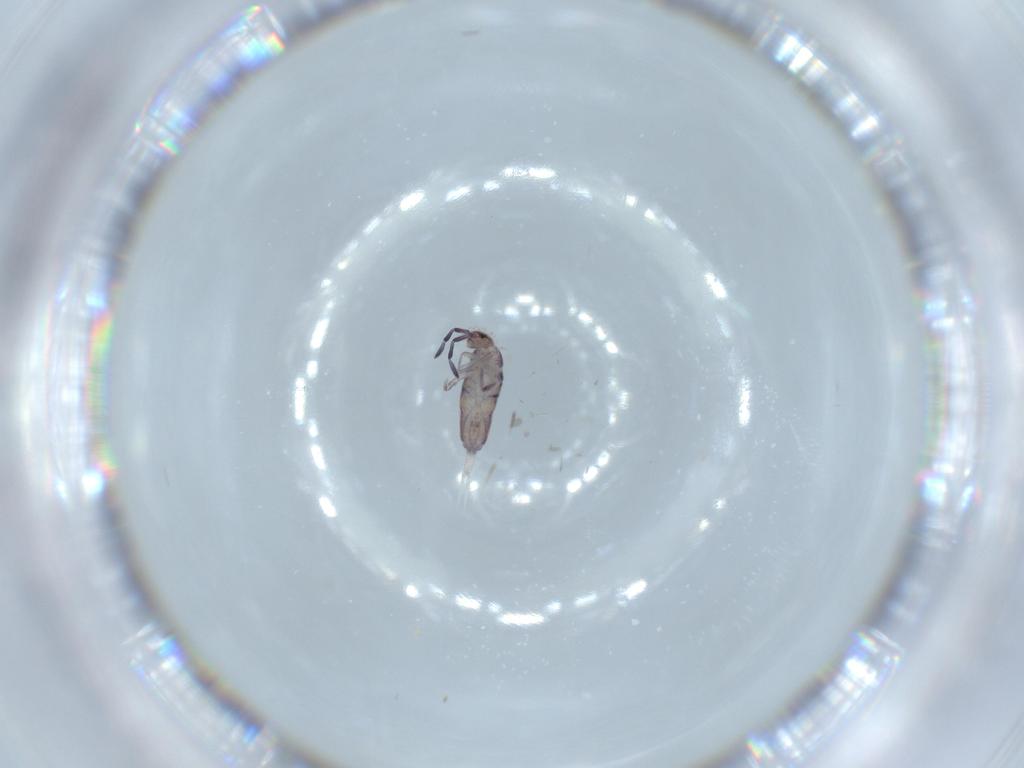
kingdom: Animalia
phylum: Arthropoda
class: Collembola
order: Entomobryomorpha
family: Entomobryidae
